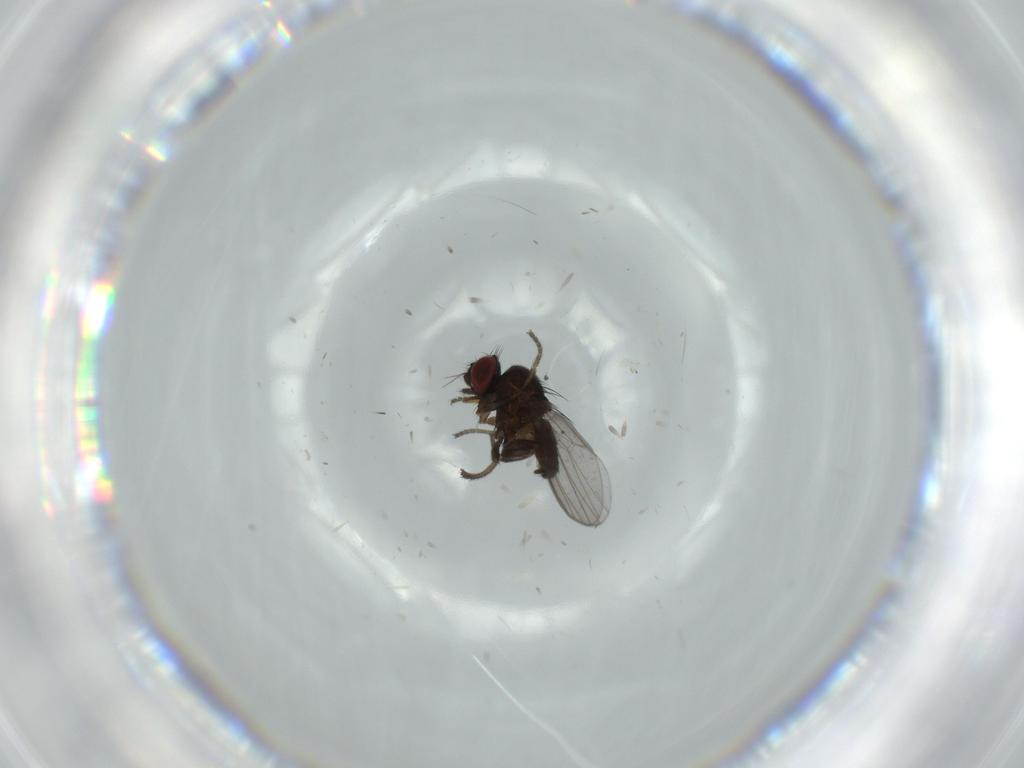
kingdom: Animalia
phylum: Arthropoda
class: Insecta
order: Diptera
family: Milichiidae
